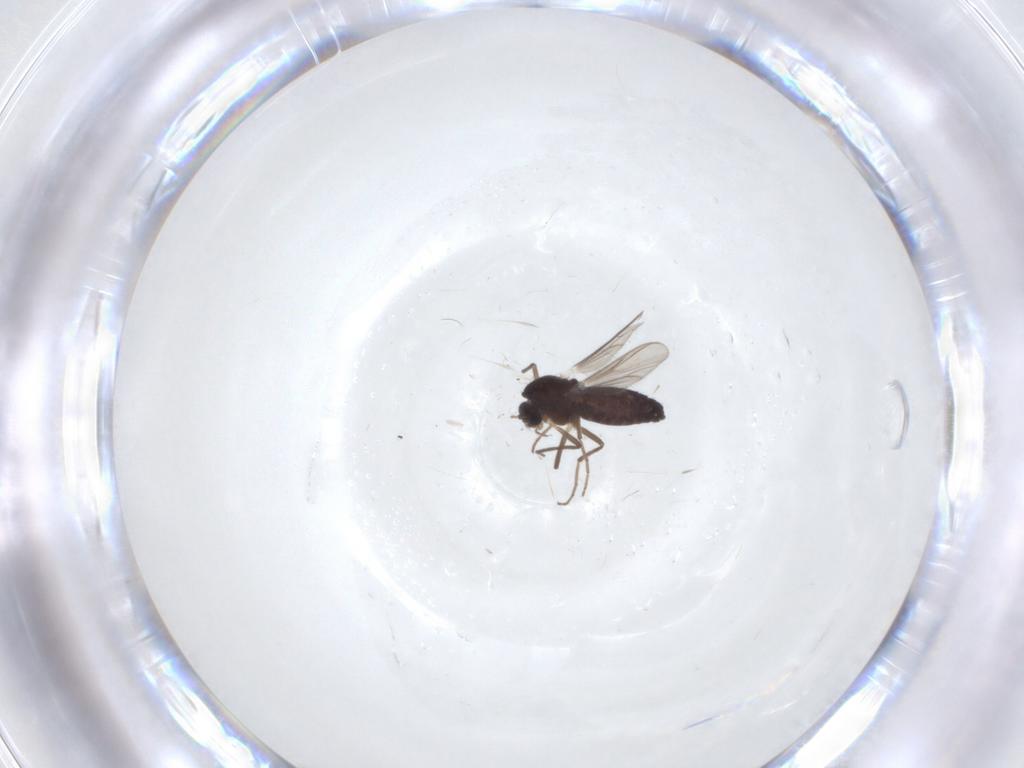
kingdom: Animalia
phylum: Arthropoda
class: Insecta
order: Diptera
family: Chironomidae
